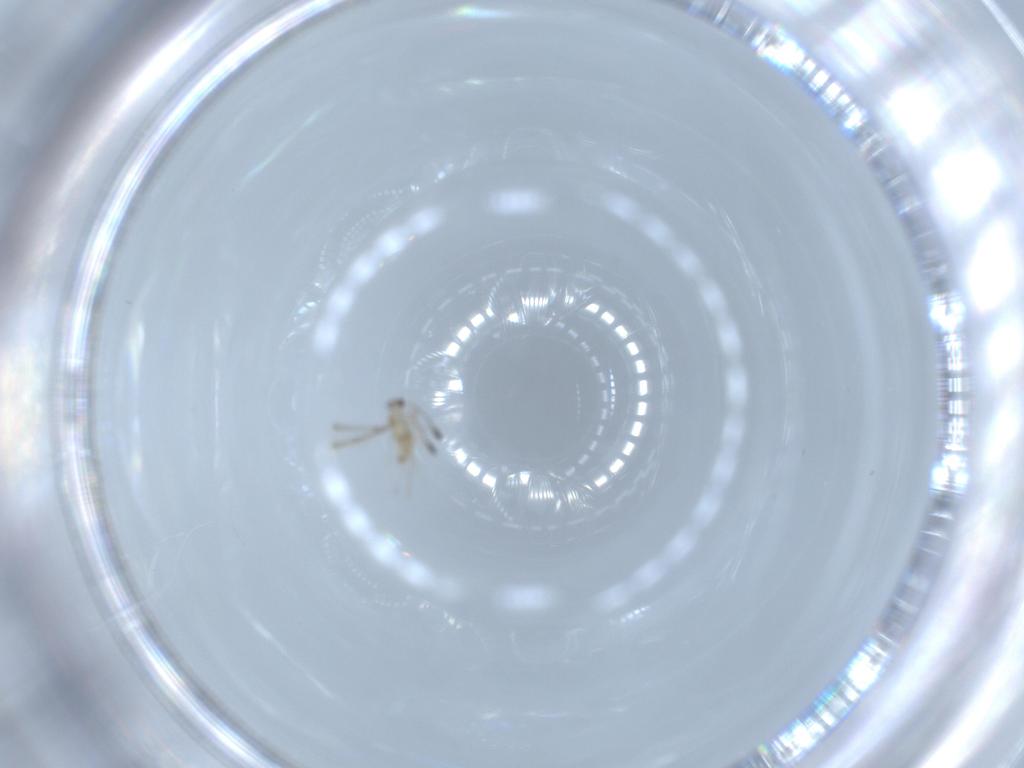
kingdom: Animalia
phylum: Arthropoda
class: Insecta
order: Hymenoptera
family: Mymaridae
